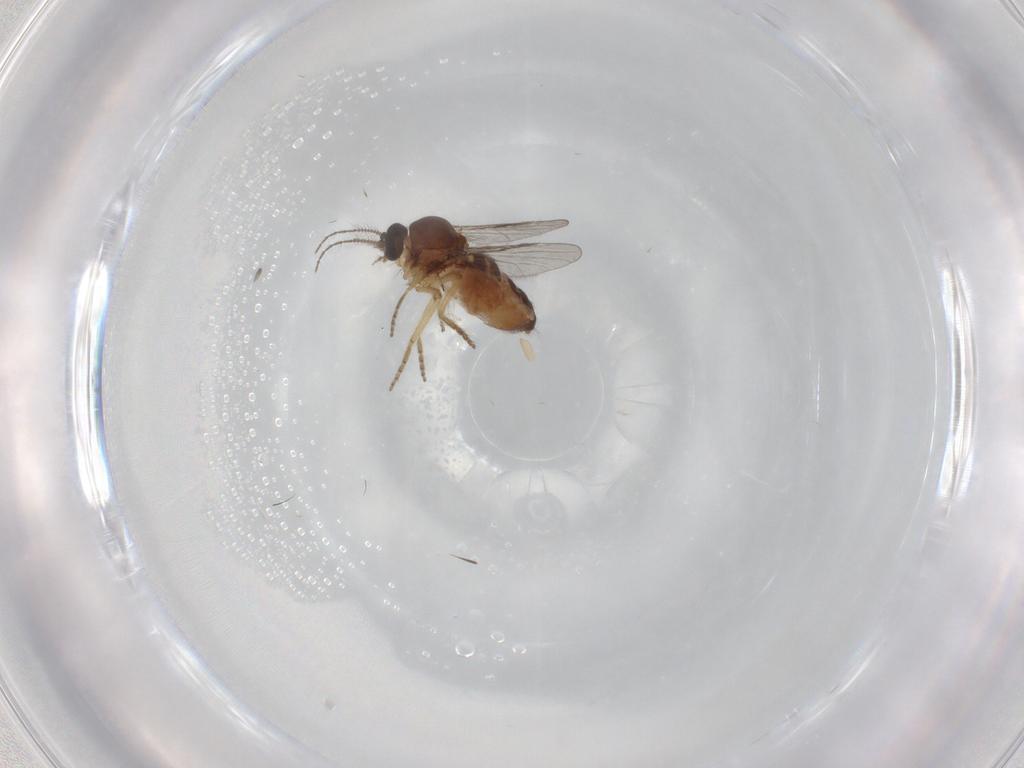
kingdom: Animalia
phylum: Arthropoda
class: Insecta
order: Diptera
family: Ceratopogonidae
